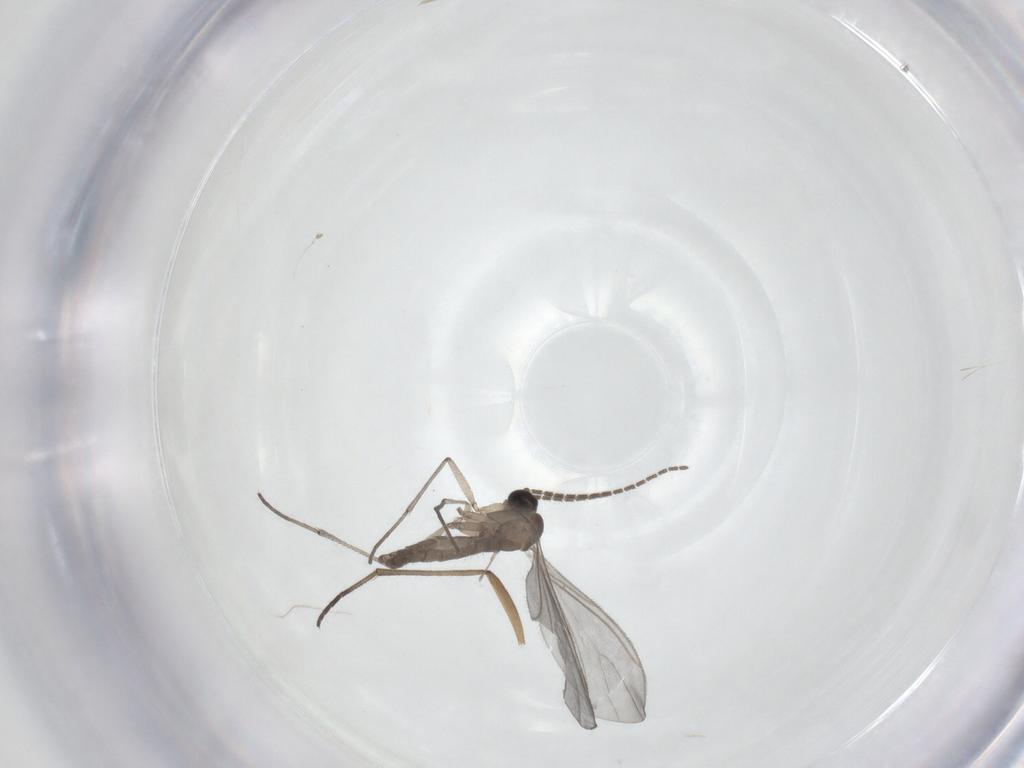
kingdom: Animalia
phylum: Arthropoda
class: Insecta
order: Diptera
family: Sciaridae
